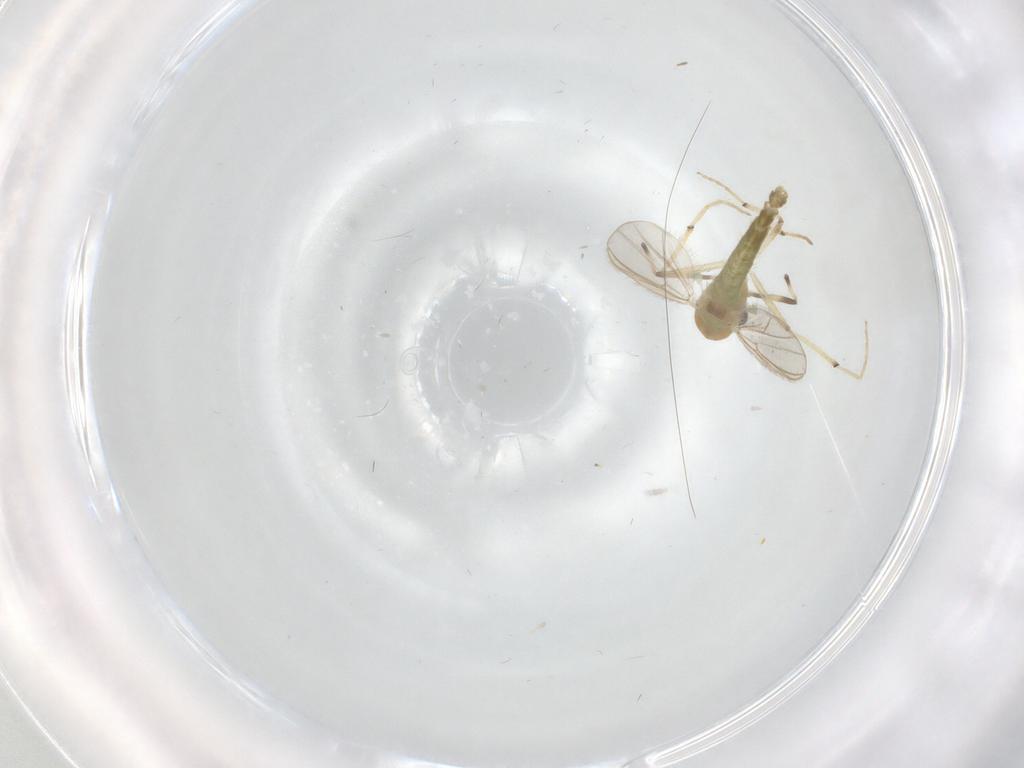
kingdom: Animalia
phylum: Arthropoda
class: Insecta
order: Diptera
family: Chironomidae
